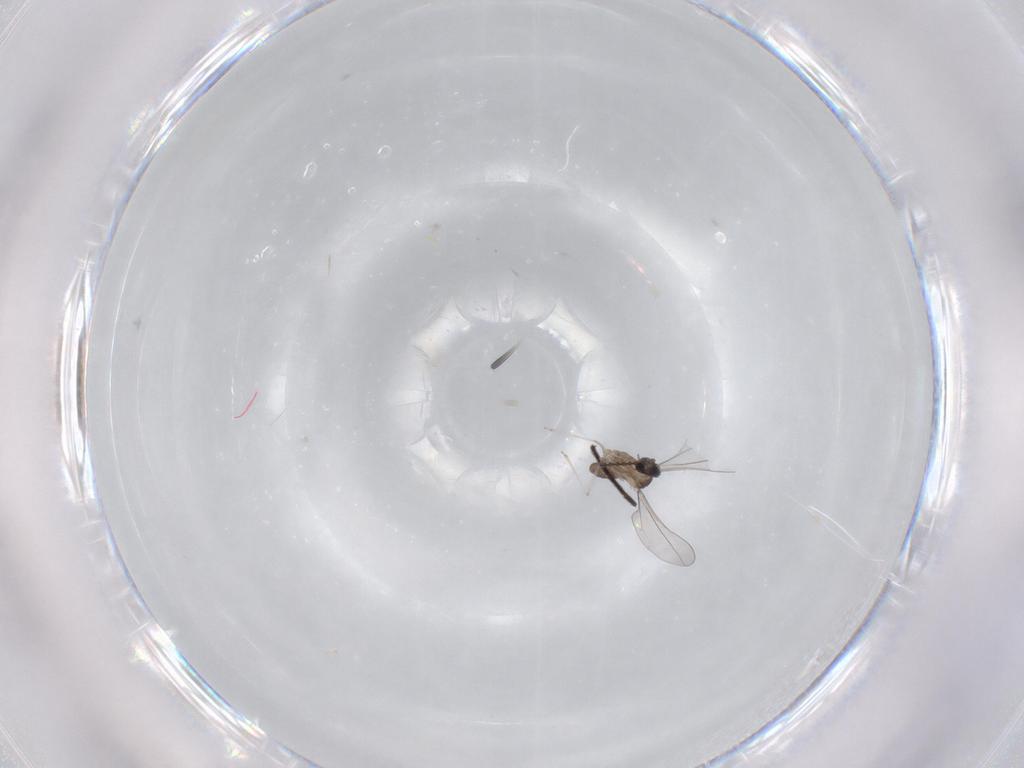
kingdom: Animalia
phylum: Arthropoda
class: Insecta
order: Diptera
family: Cecidomyiidae
